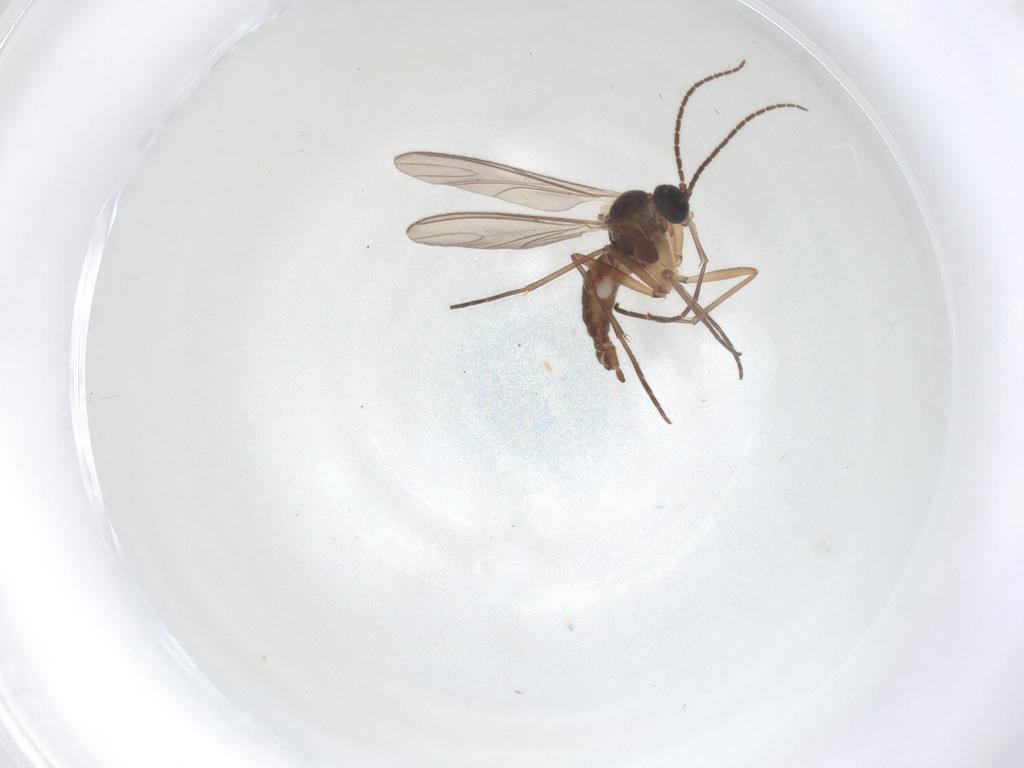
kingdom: Animalia
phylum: Arthropoda
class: Insecta
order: Diptera
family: Sciaridae
